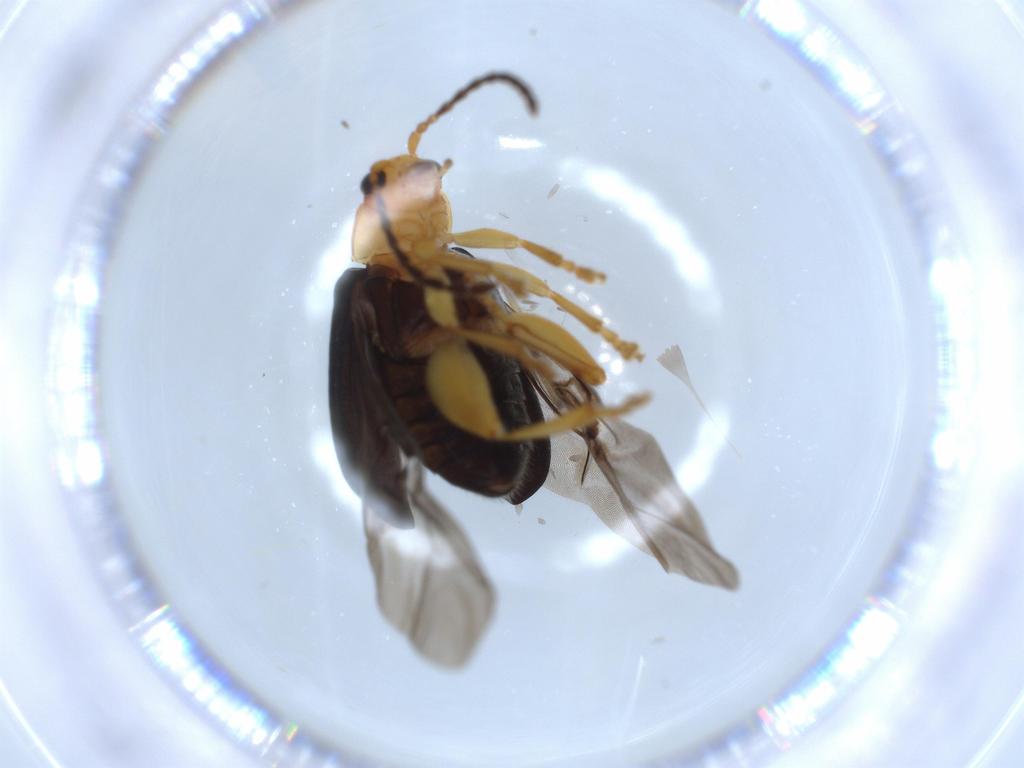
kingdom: Animalia
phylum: Arthropoda
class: Insecta
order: Coleoptera
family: Chrysomelidae
